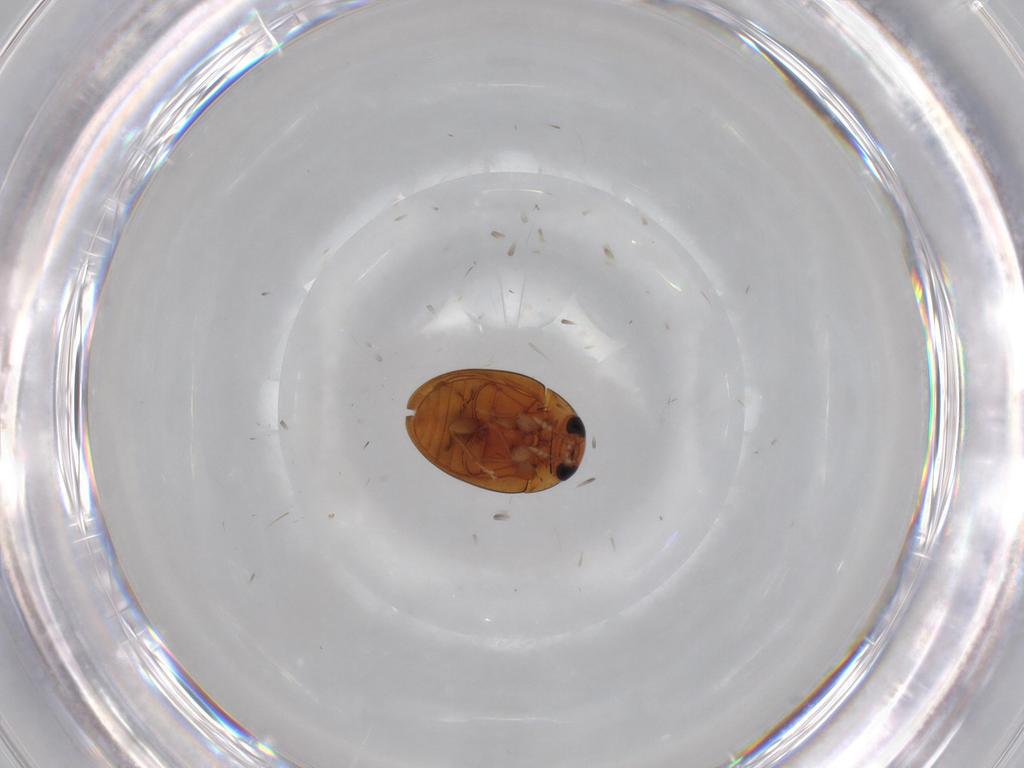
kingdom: Animalia
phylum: Arthropoda
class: Insecta
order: Coleoptera
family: Phalacridae
